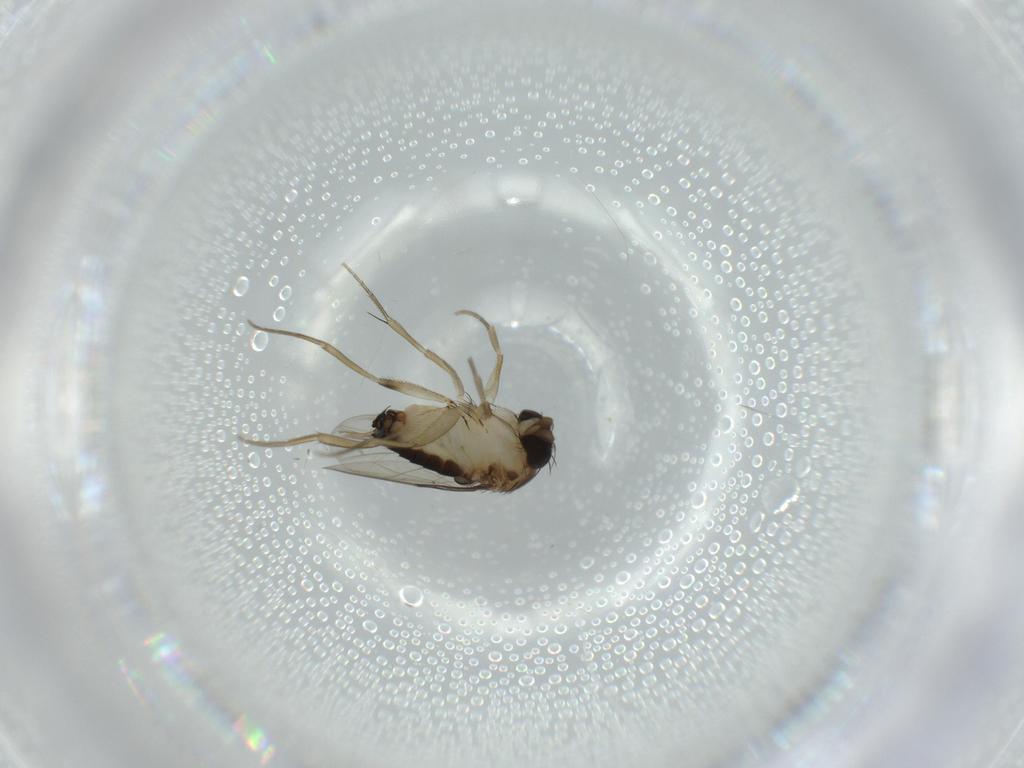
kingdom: Animalia
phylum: Arthropoda
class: Insecta
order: Diptera
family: Phoridae
